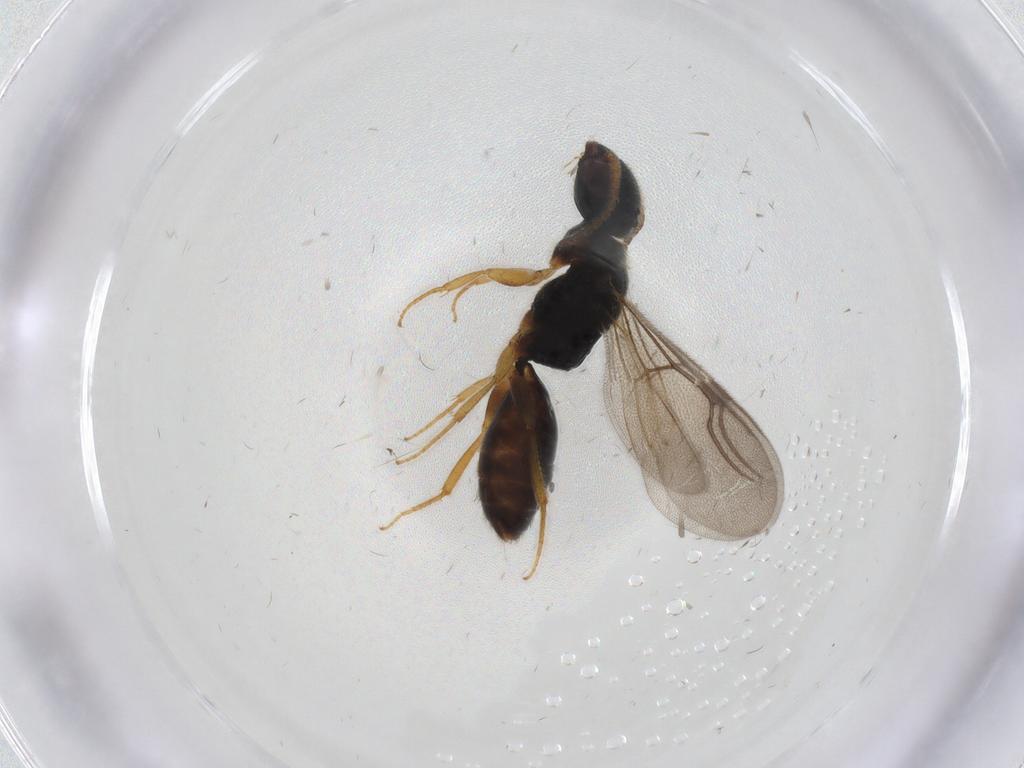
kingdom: Animalia
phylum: Arthropoda
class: Insecta
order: Hymenoptera
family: Bethylidae
